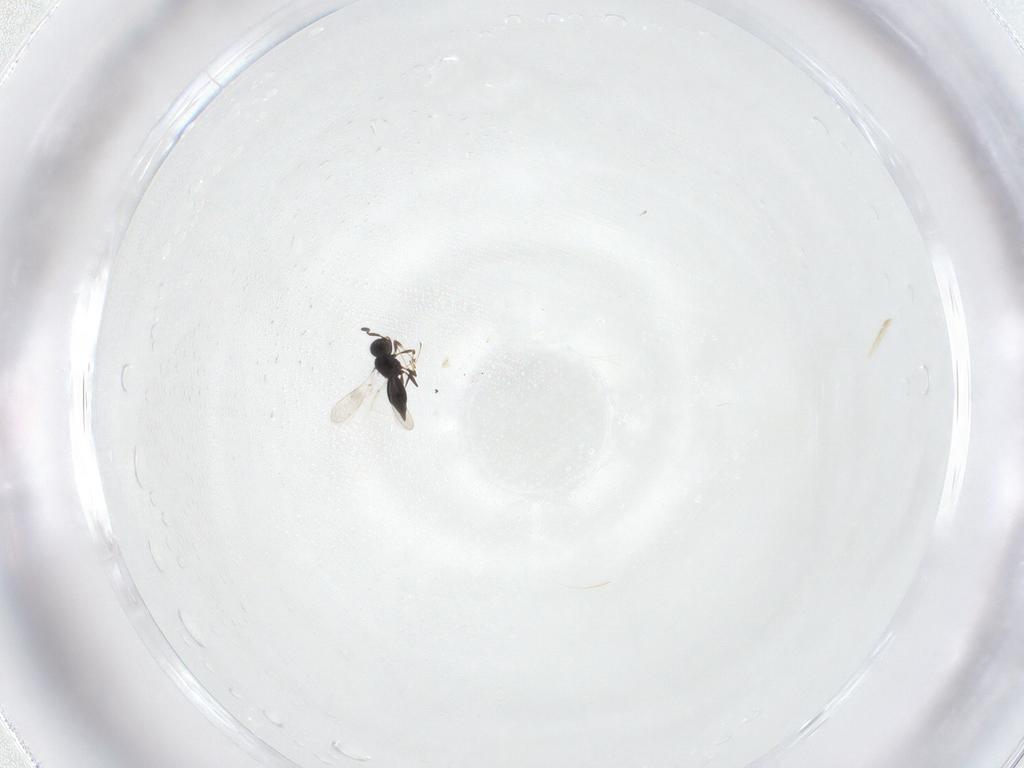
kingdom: Animalia
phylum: Arthropoda
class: Insecta
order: Hymenoptera
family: Scelionidae
